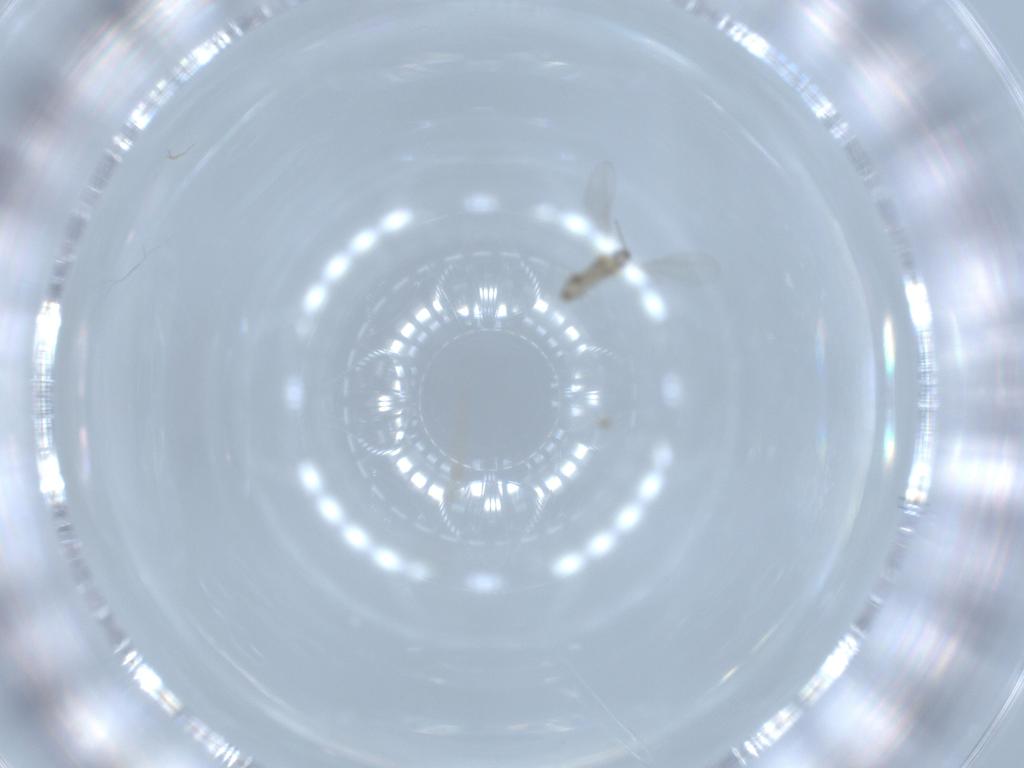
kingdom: Animalia
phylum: Arthropoda
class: Insecta
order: Diptera
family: Cecidomyiidae
